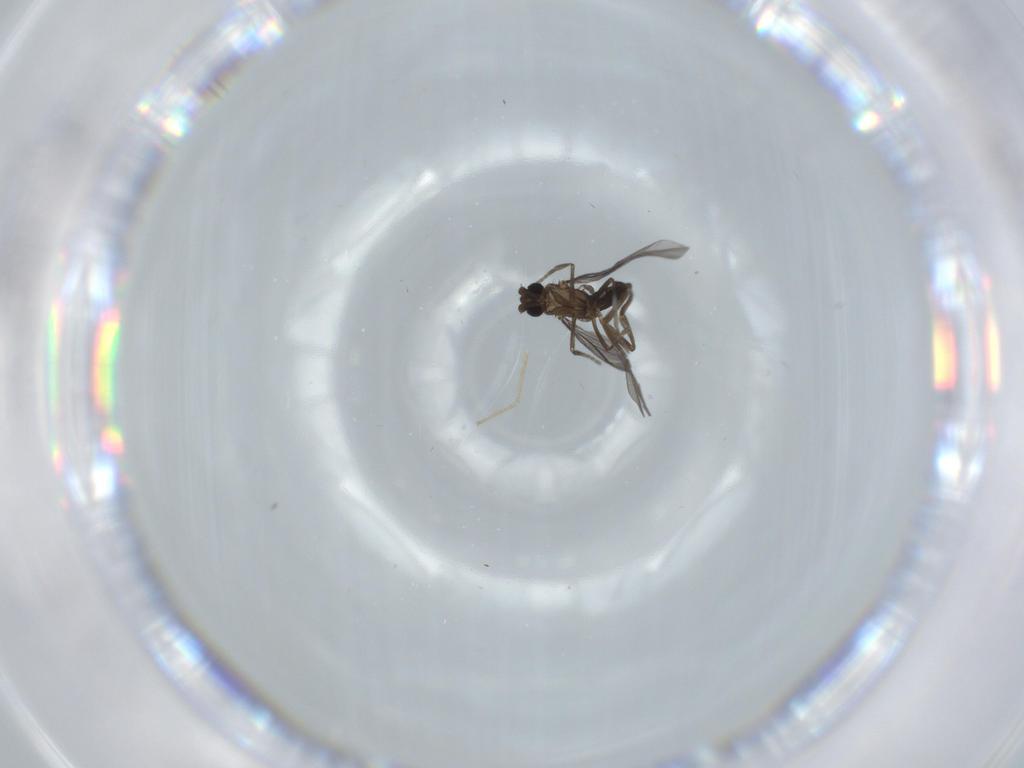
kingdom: Animalia
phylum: Arthropoda
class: Insecta
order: Diptera
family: Phoridae
